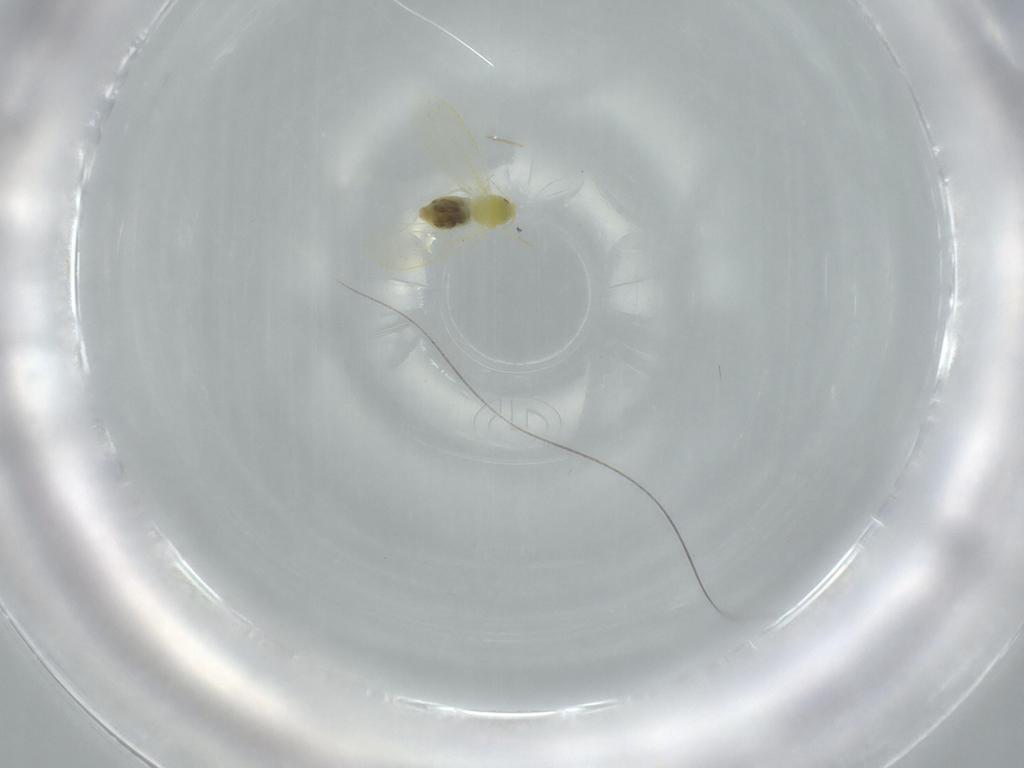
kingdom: Animalia
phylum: Arthropoda
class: Insecta
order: Hemiptera
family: Aleyrodidae
